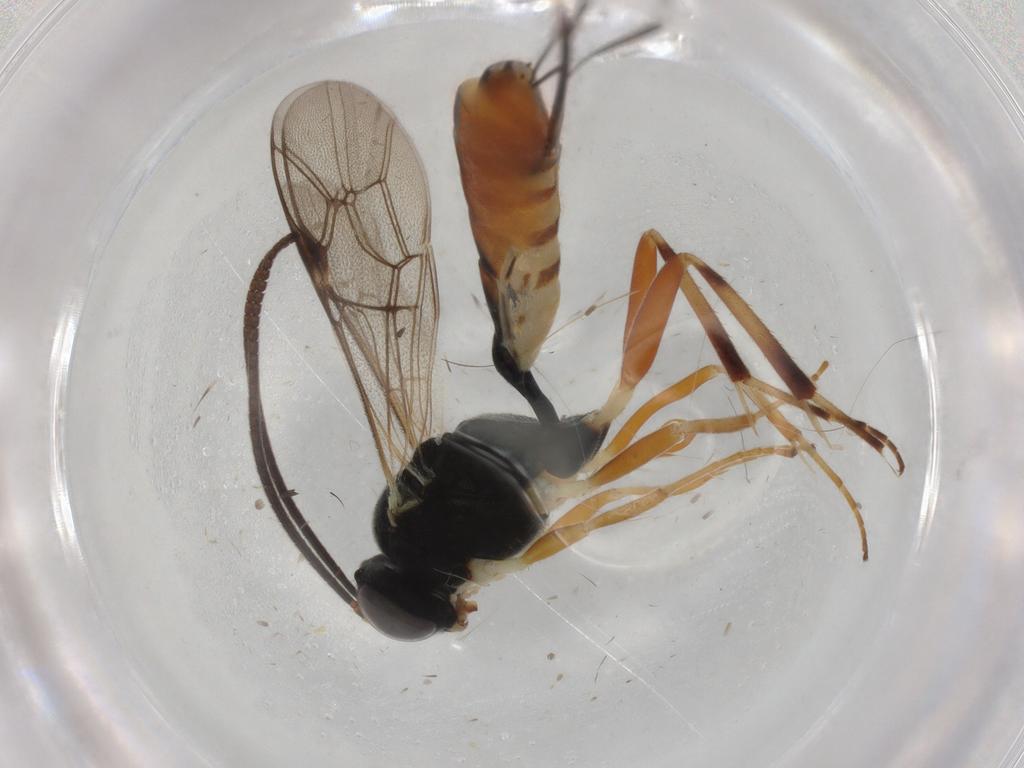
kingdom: Animalia
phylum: Arthropoda
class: Insecta
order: Hymenoptera
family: Ichneumonidae
